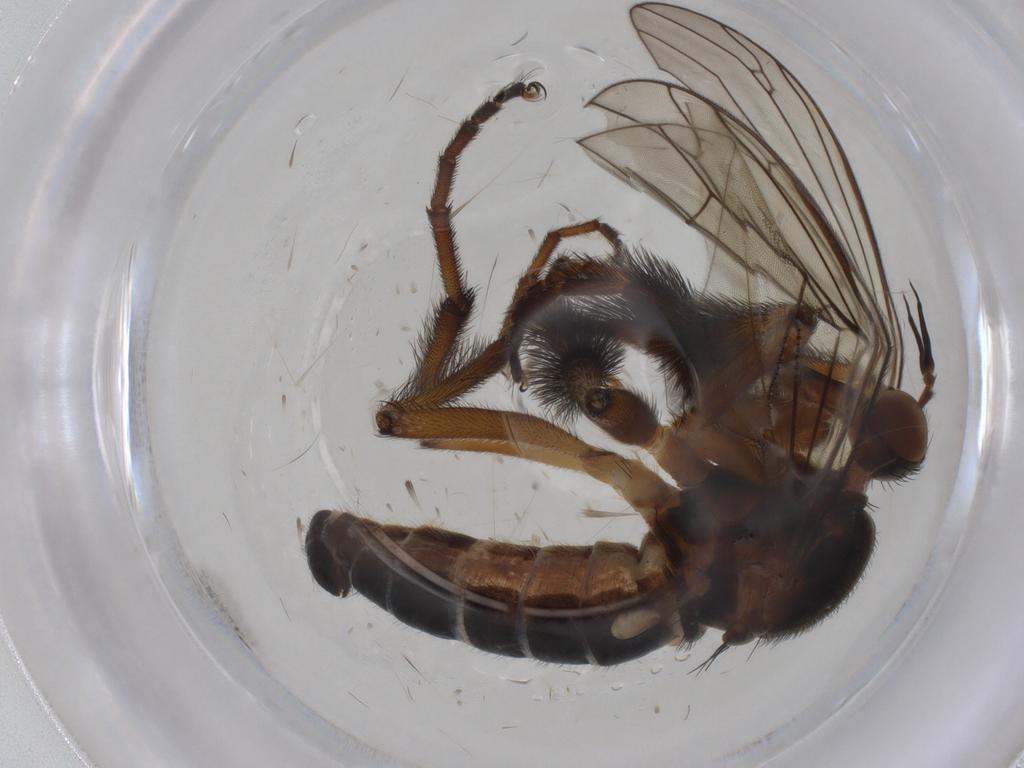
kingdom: Animalia
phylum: Arthropoda
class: Insecta
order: Diptera
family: Empididae
